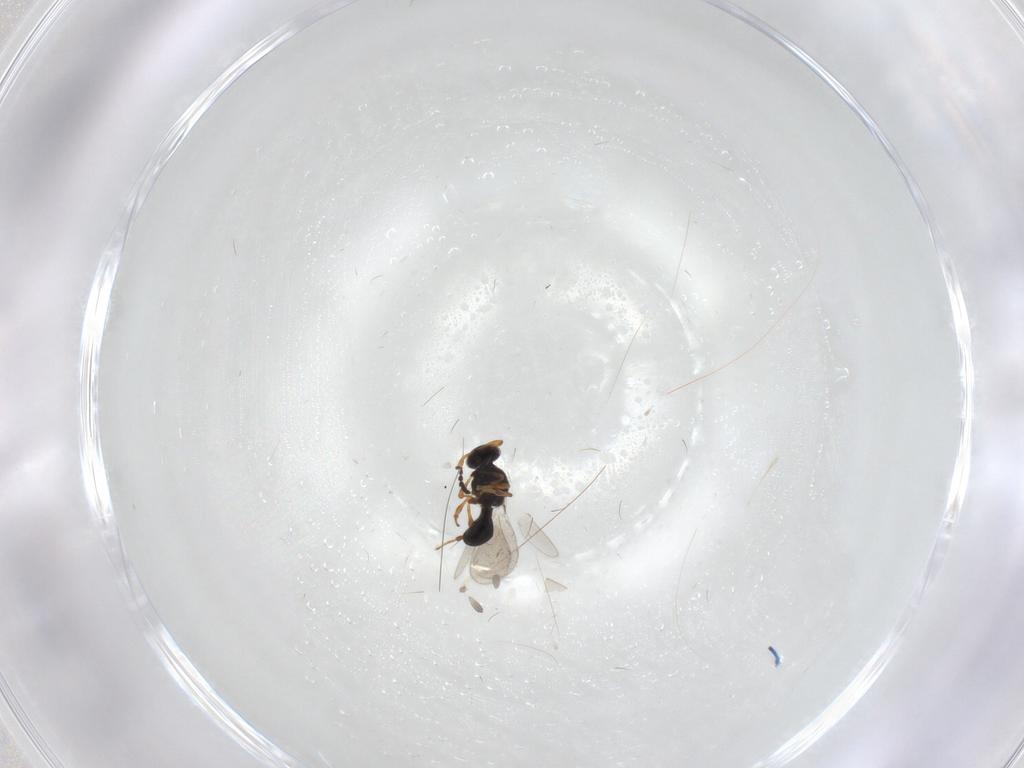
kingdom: Animalia
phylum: Arthropoda
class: Insecta
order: Hymenoptera
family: Platygastridae
